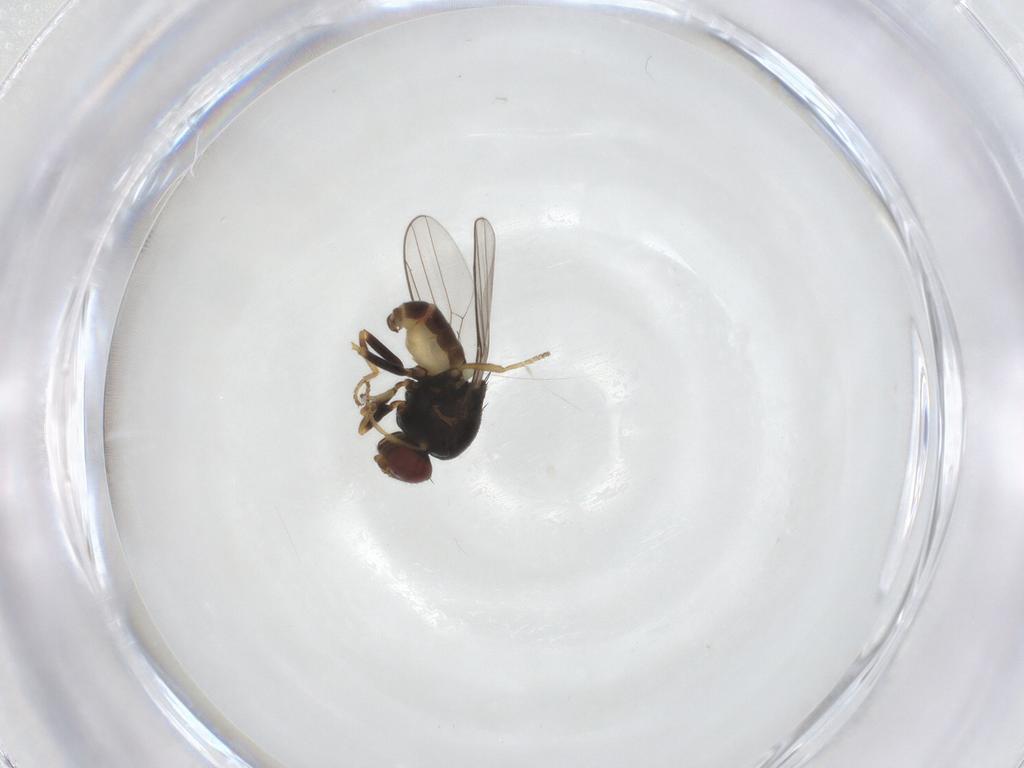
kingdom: Animalia
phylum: Arthropoda
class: Insecta
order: Diptera
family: Chloropidae
